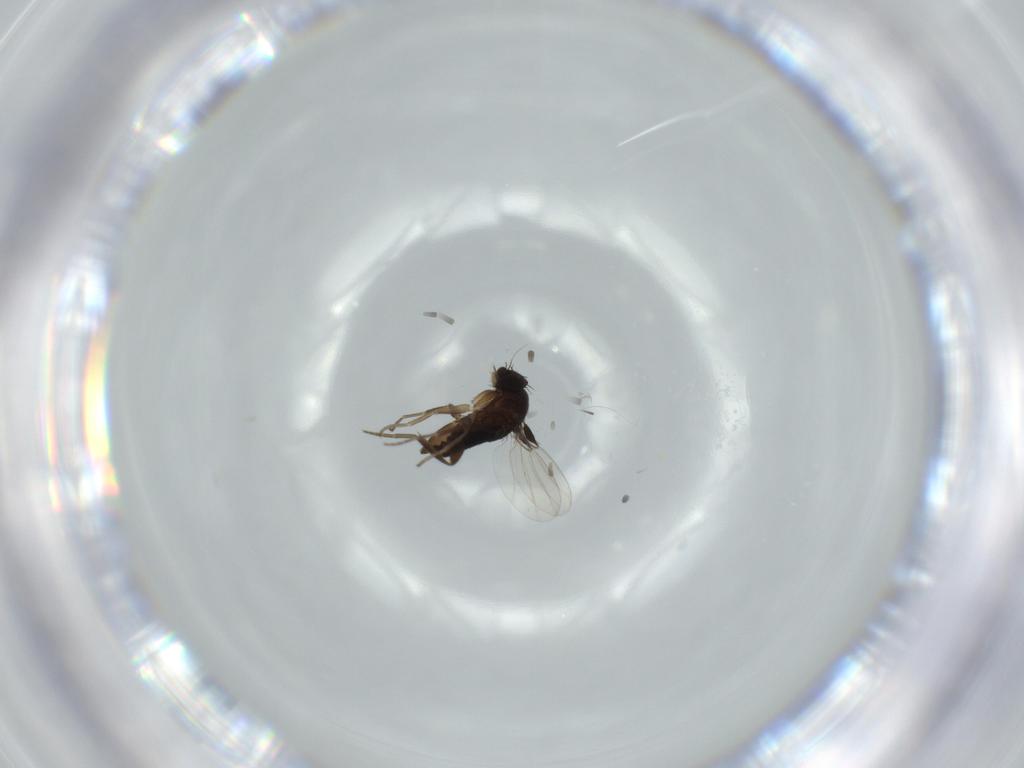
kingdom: Animalia
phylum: Arthropoda
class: Insecta
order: Diptera
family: Phoridae
